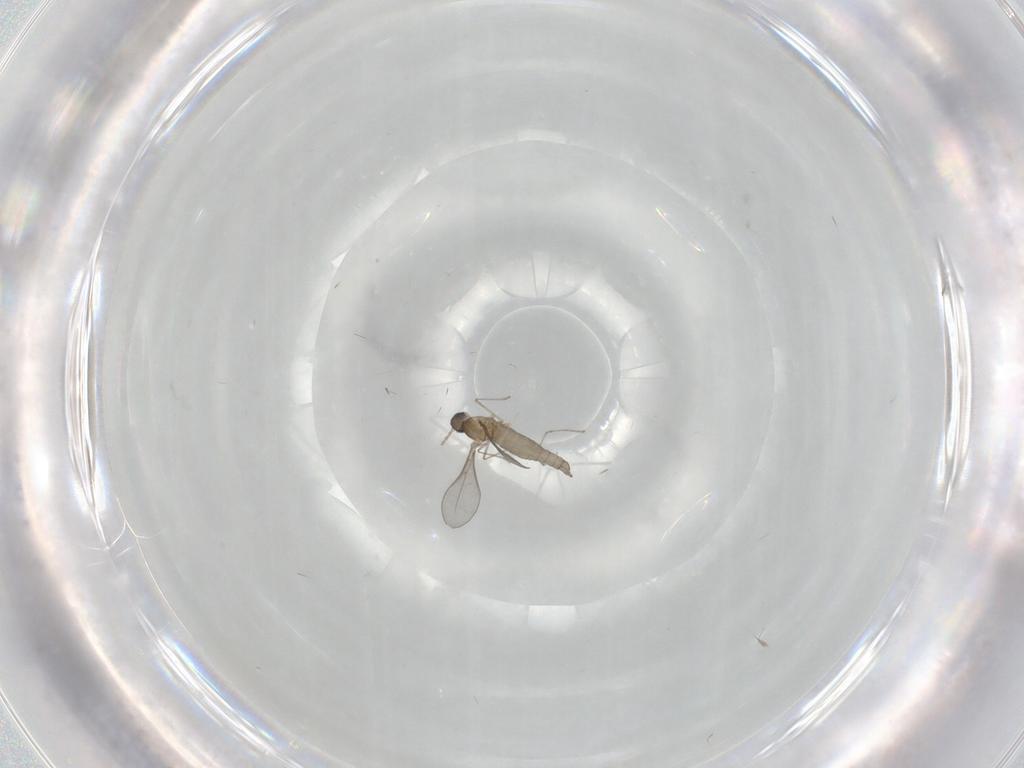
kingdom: Animalia
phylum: Arthropoda
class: Insecta
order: Diptera
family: Cecidomyiidae
